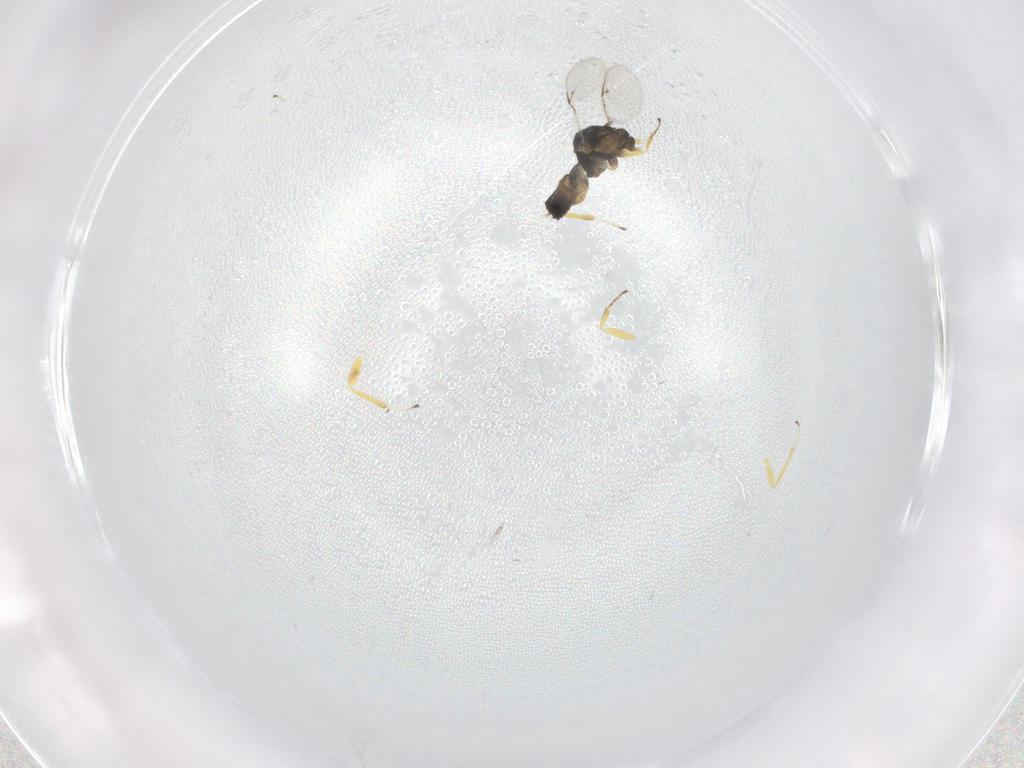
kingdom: Animalia
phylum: Arthropoda
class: Insecta
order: Hymenoptera
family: Encyrtidae
